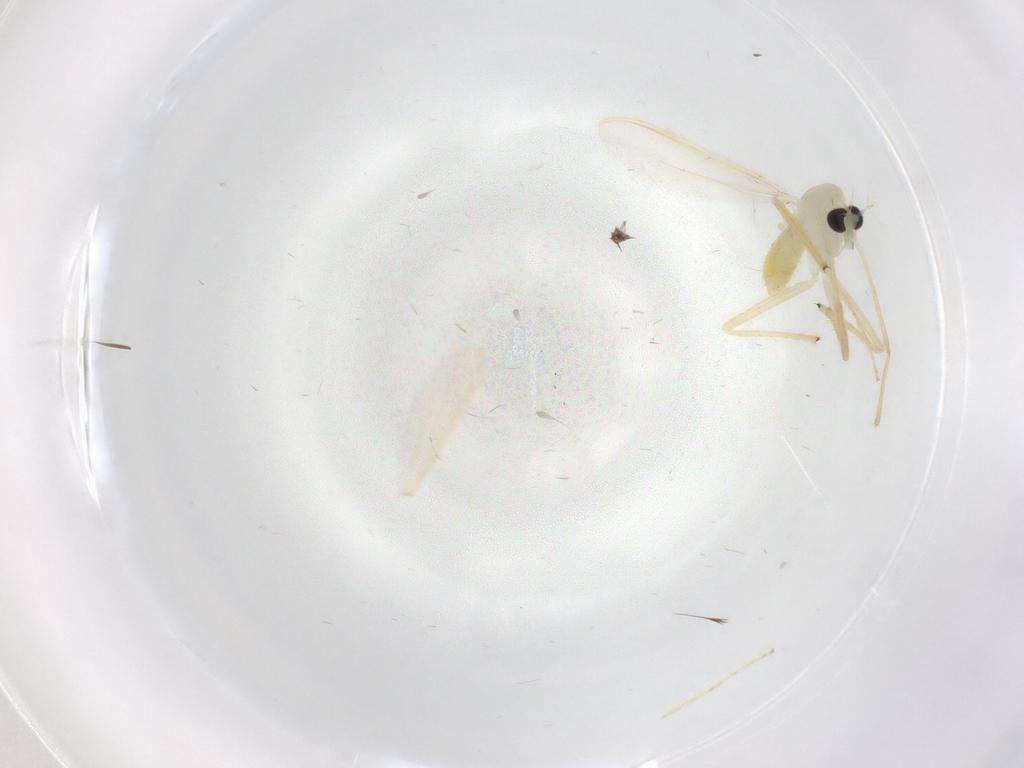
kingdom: Animalia
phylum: Arthropoda
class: Insecta
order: Diptera
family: Chironomidae
